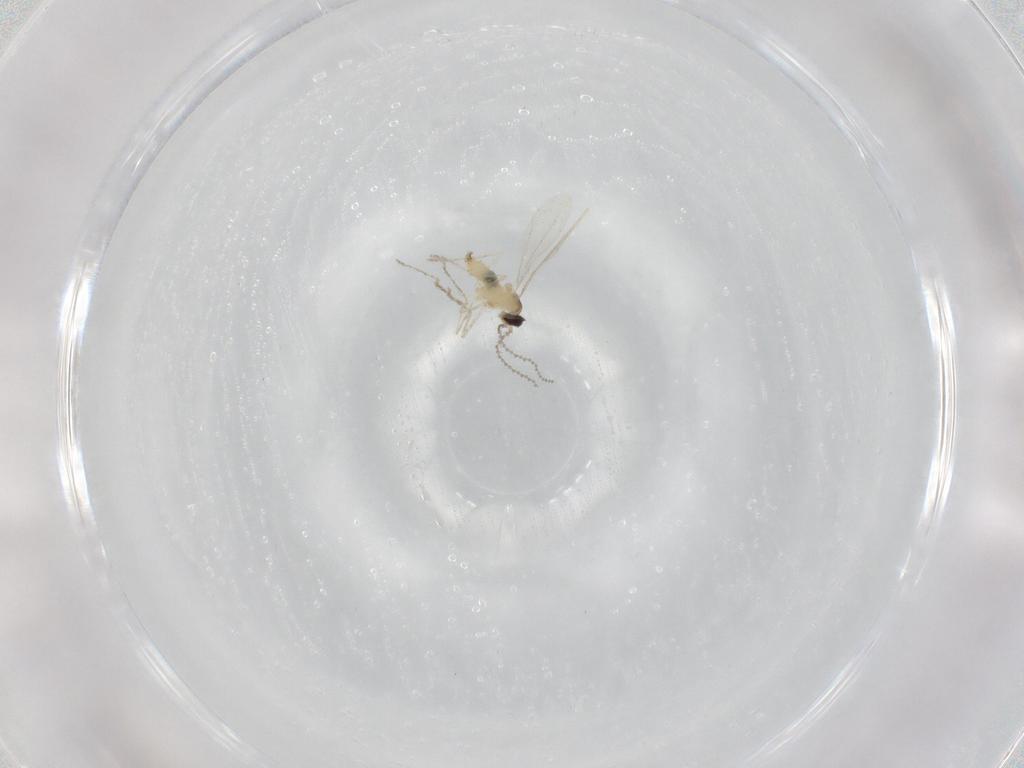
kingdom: Animalia
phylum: Arthropoda
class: Insecta
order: Diptera
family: Cecidomyiidae
